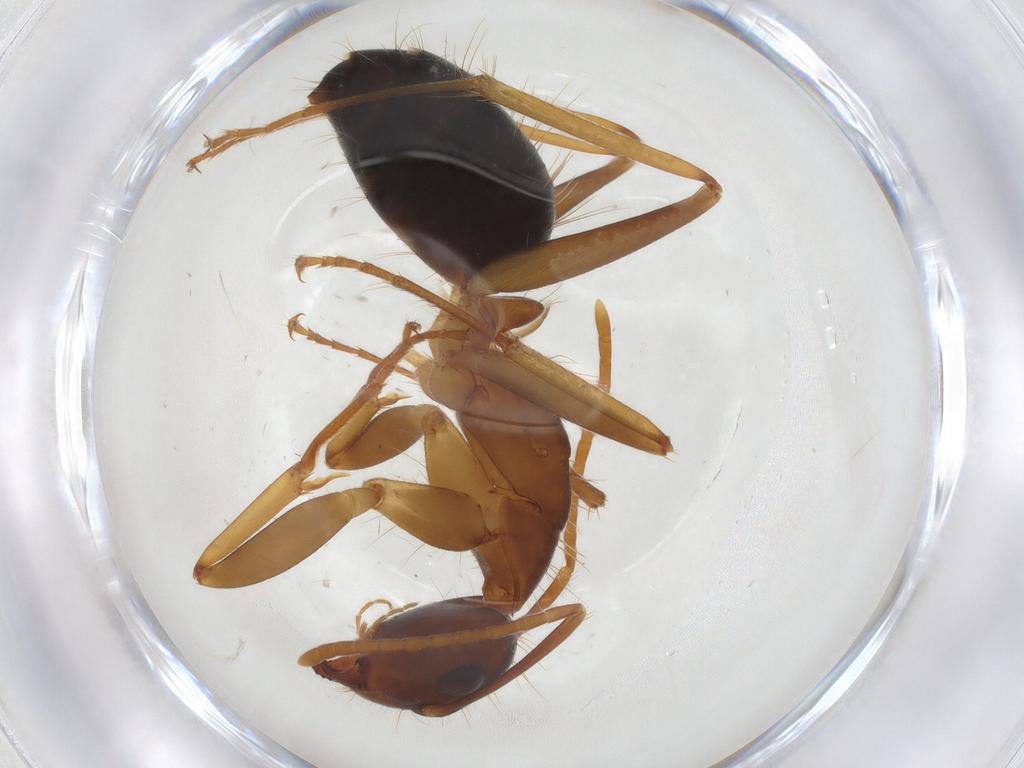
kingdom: Animalia
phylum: Arthropoda
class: Insecta
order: Hymenoptera
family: Formicidae
